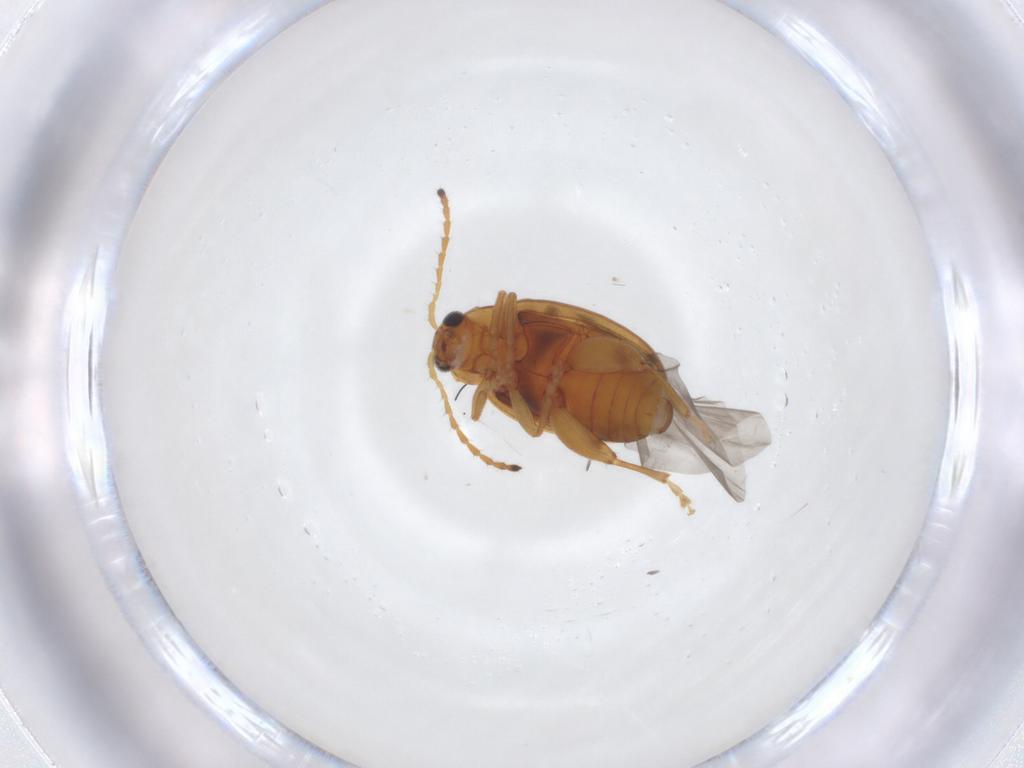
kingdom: Animalia
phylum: Arthropoda
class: Insecta
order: Coleoptera
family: Chrysomelidae
